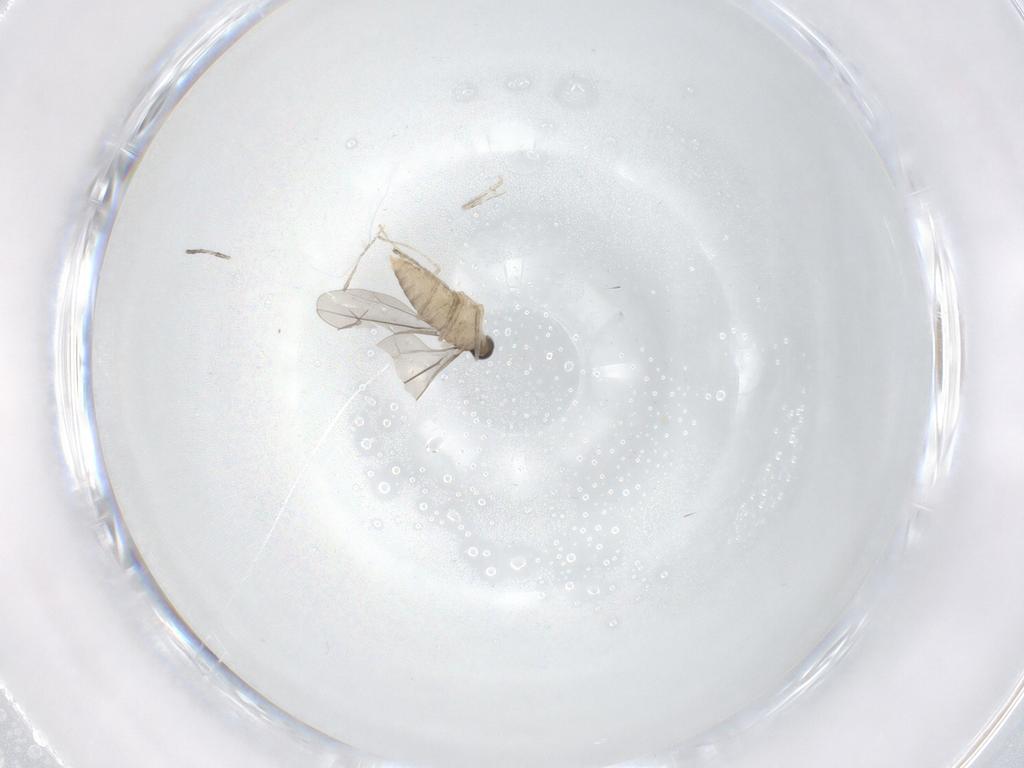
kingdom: Animalia
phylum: Arthropoda
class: Insecta
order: Diptera
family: Cecidomyiidae
